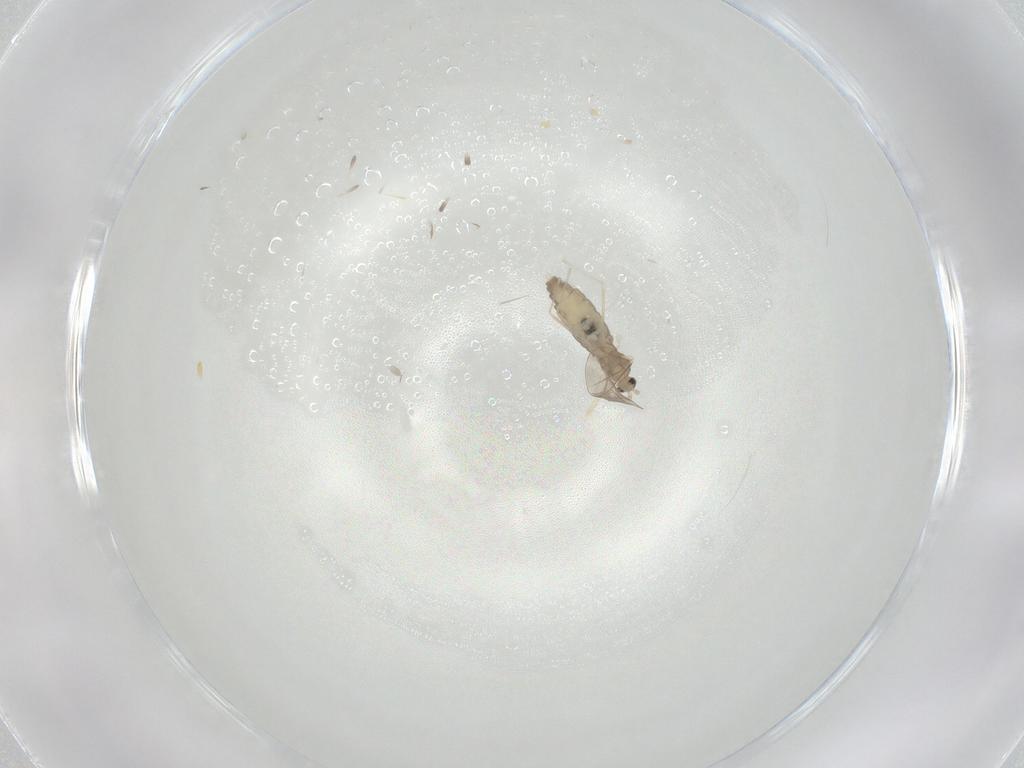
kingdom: Animalia
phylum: Arthropoda
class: Insecta
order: Diptera
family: Cecidomyiidae
